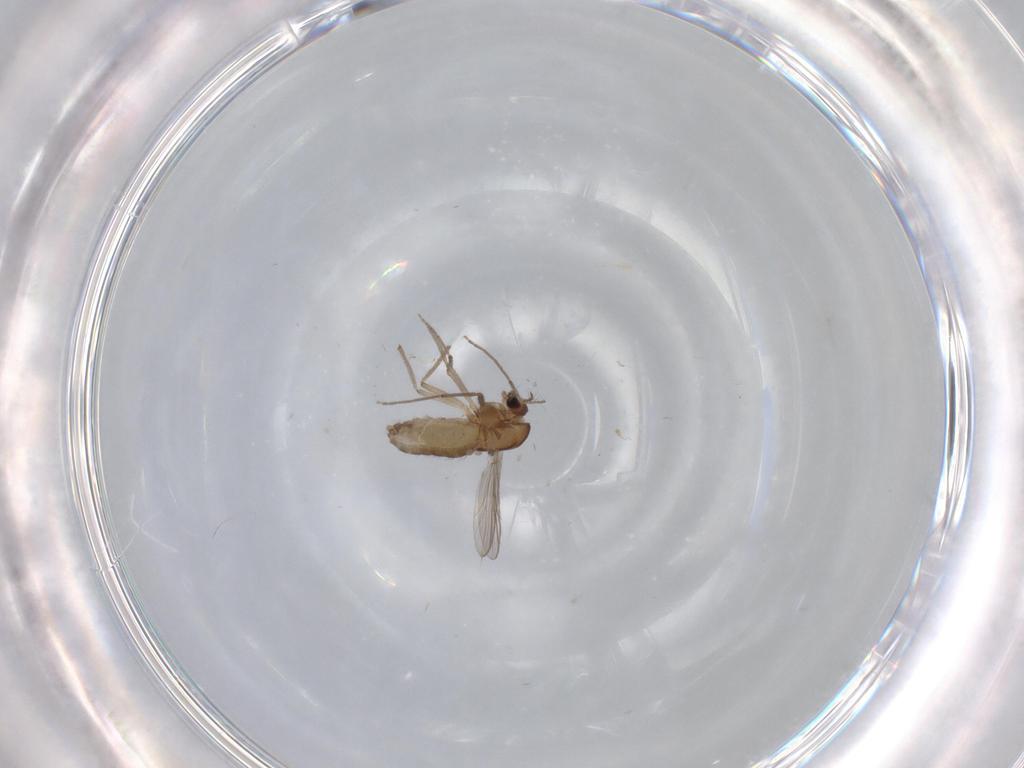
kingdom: Animalia
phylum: Arthropoda
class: Insecta
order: Diptera
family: Chironomidae
